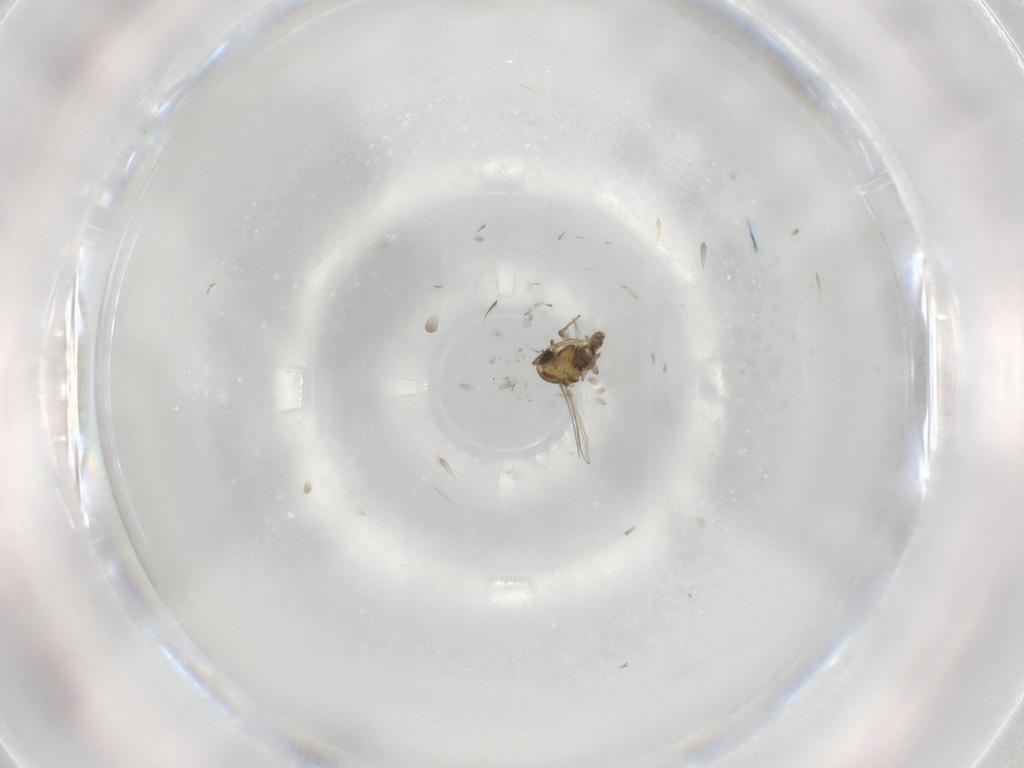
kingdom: Animalia
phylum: Arthropoda
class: Insecta
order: Diptera
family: Chironomidae
